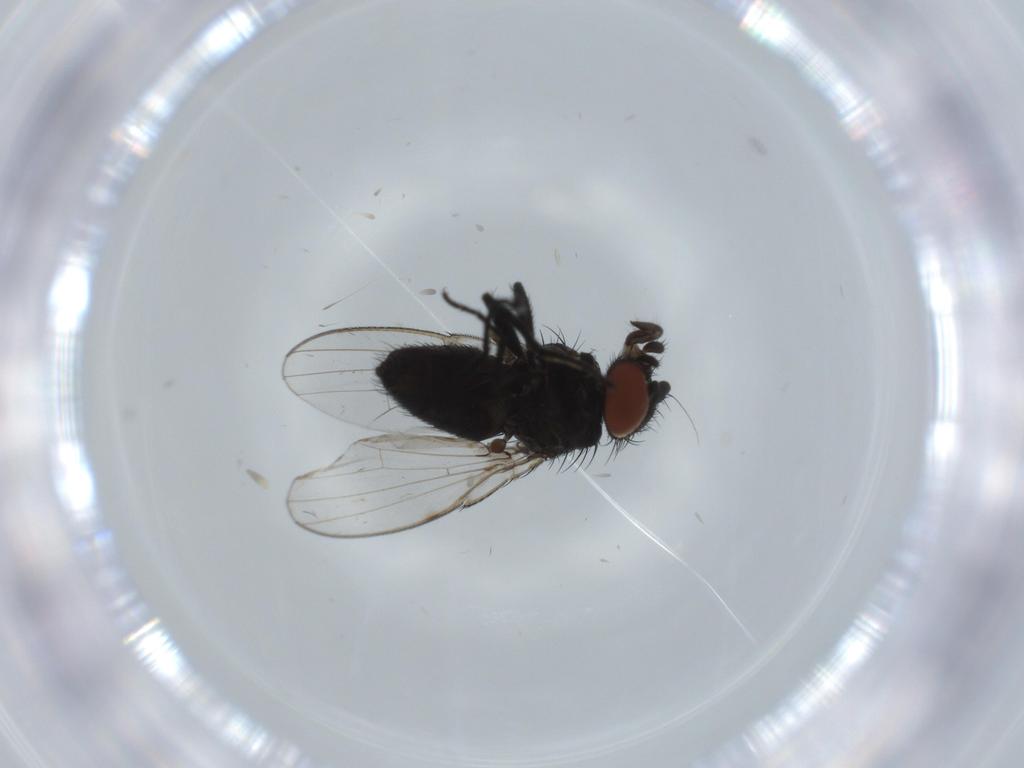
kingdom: Animalia
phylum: Arthropoda
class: Insecta
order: Diptera
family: Milichiidae
